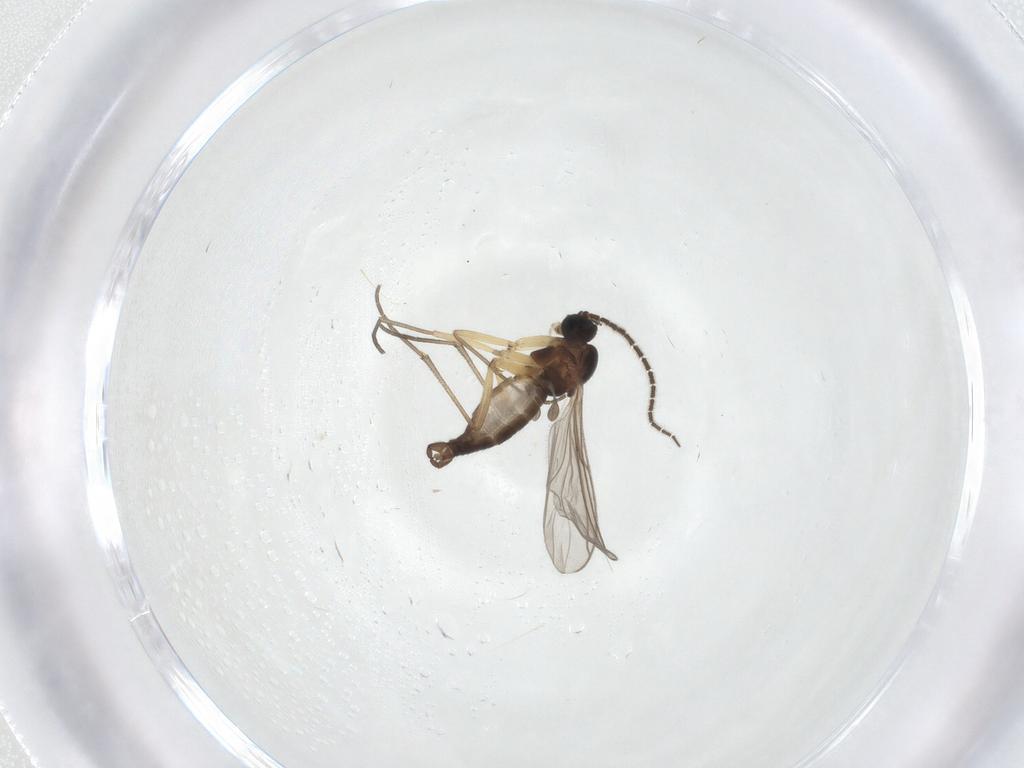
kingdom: Animalia
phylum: Arthropoda
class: Insecta
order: Diptera
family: Sciaridae
